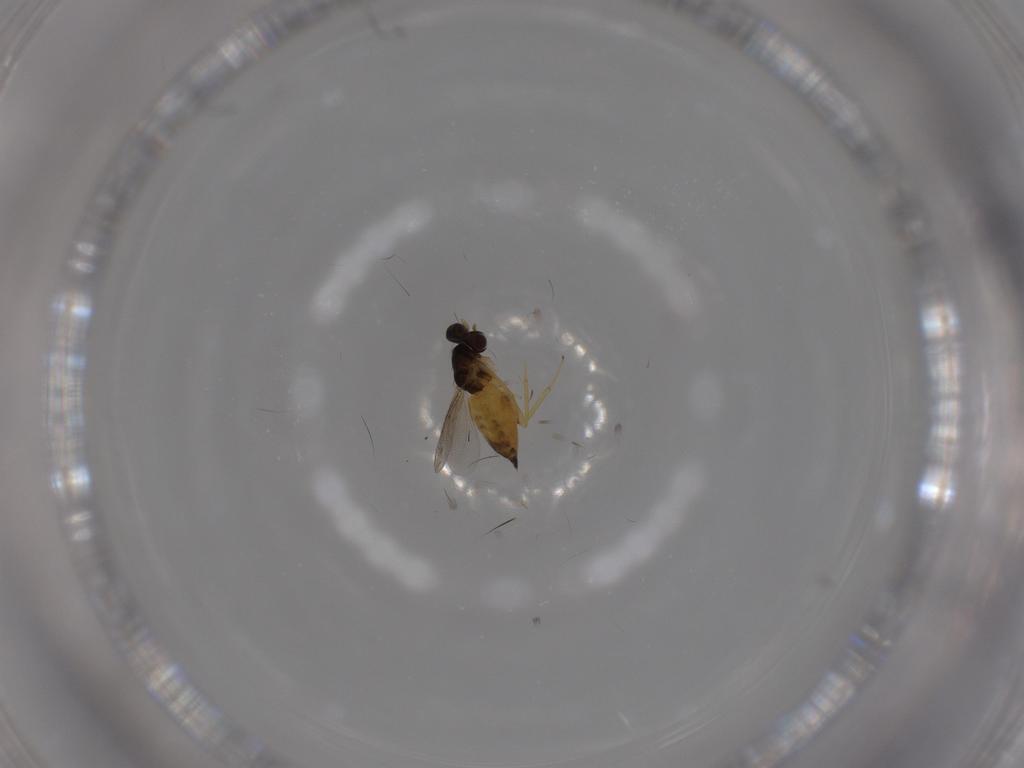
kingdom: Animalia
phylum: Arthropoda
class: Insecta
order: Hymenoptera
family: Eulophidae
